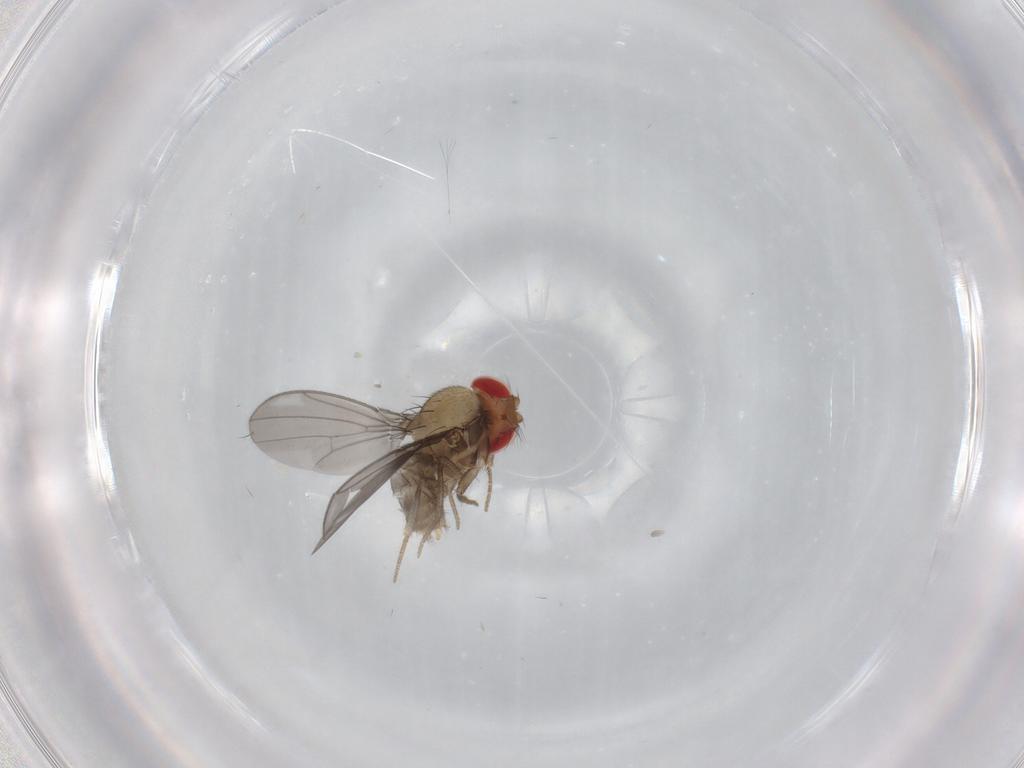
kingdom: Animalia
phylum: Arthropoda
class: Insecta
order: Diptera
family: Drosophilidae
